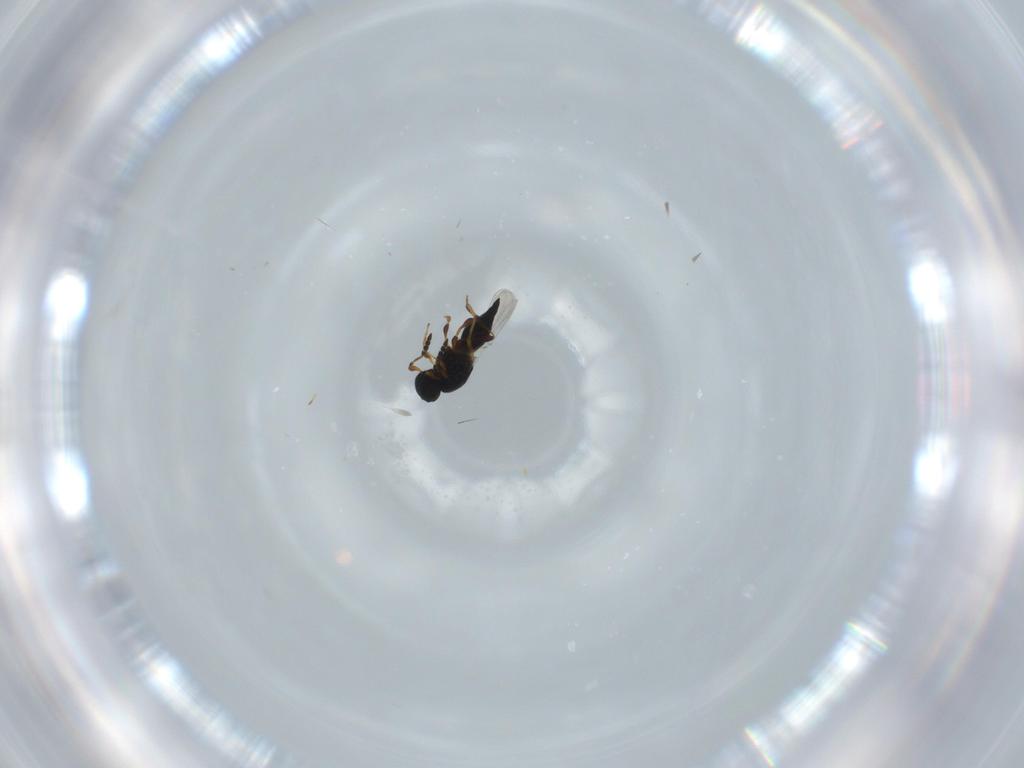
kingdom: Animalia
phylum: Arthropoda
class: Insecta
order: Hymenoptera
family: Platygastridae
